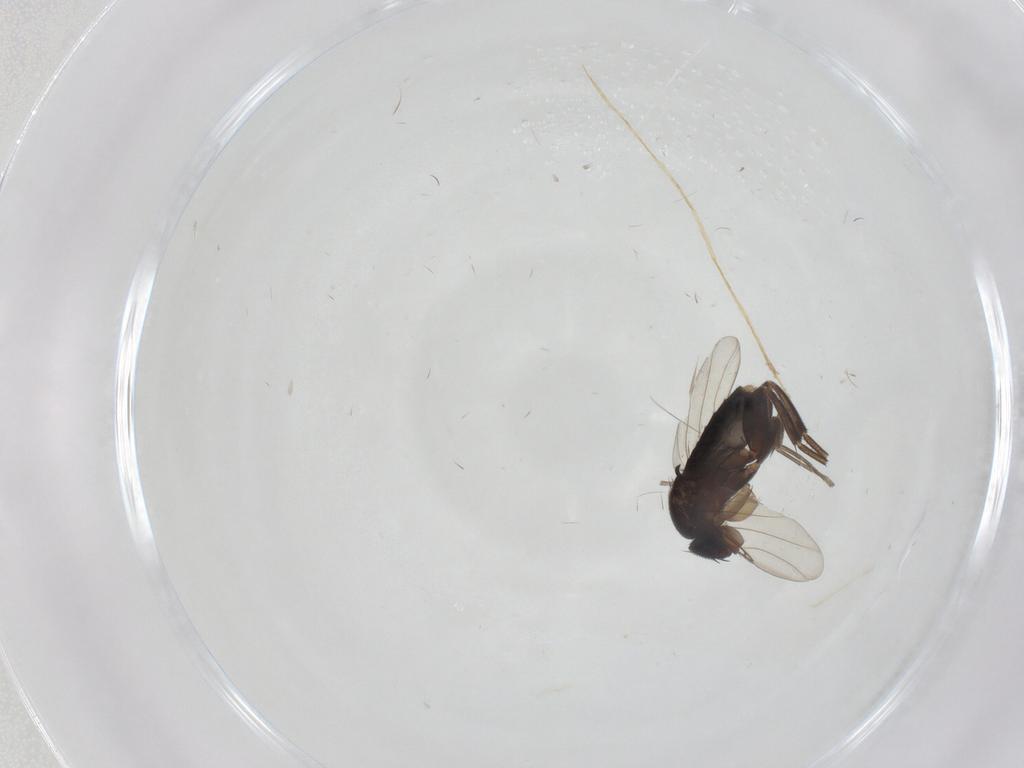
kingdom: Animalia
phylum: Arthropoda
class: Insecta
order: Diptera
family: Phoridae
